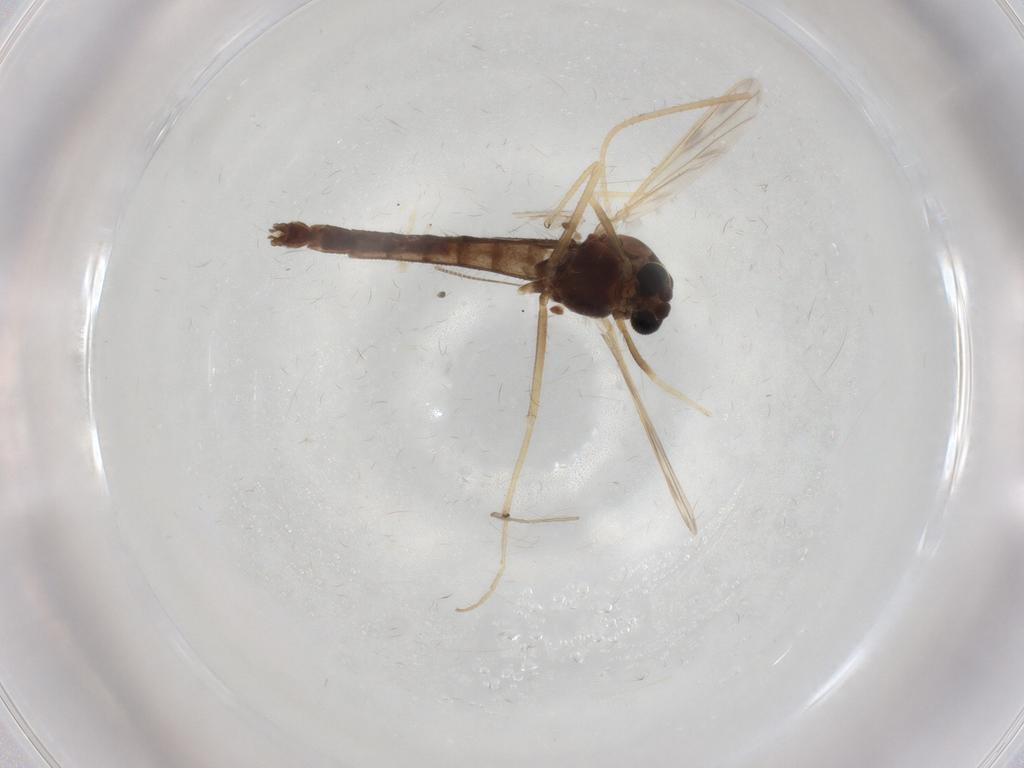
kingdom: Animalia
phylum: Arthropoda
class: Insecta
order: Diptera
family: Chironomidae
